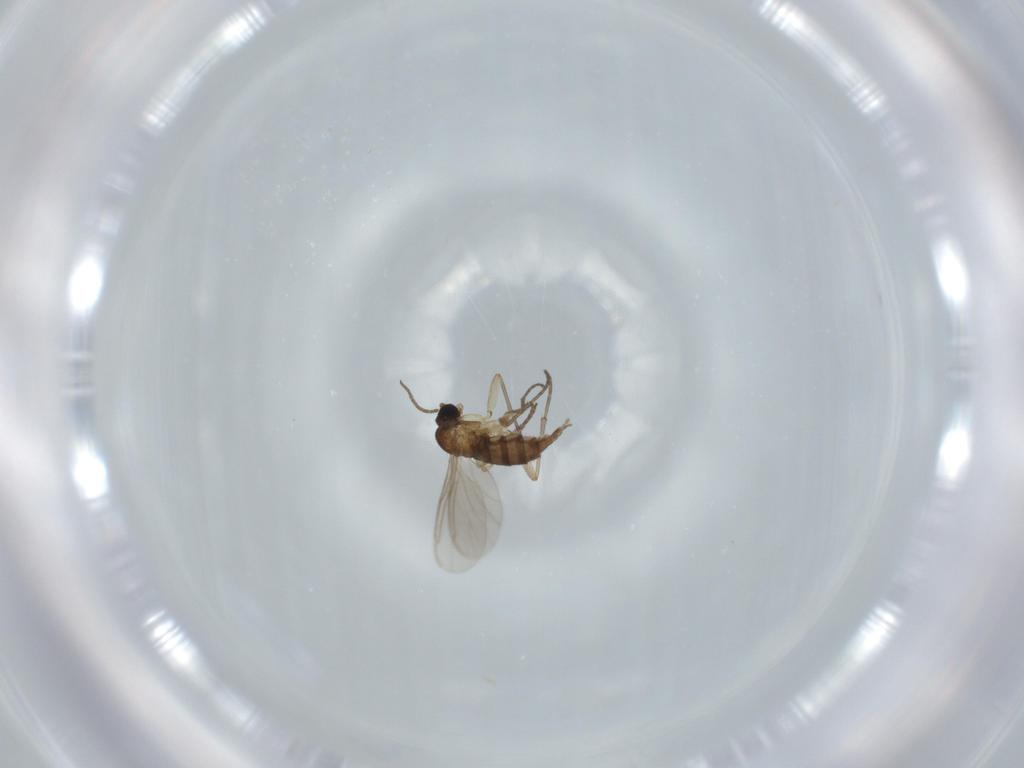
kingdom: Animalia
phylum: Arthropoda
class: Insecta
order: Diptera
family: Sciaridae
